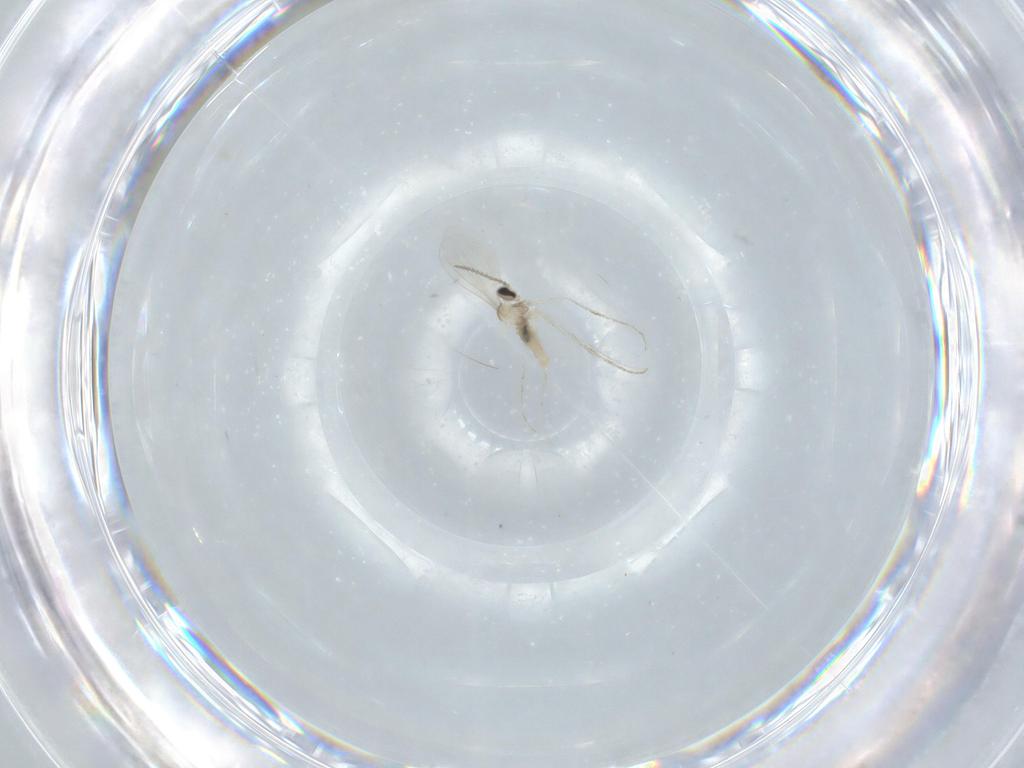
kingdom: Animalia
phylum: Arthropoda
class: Insecta
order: Diptera
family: Cecidomyiidae
